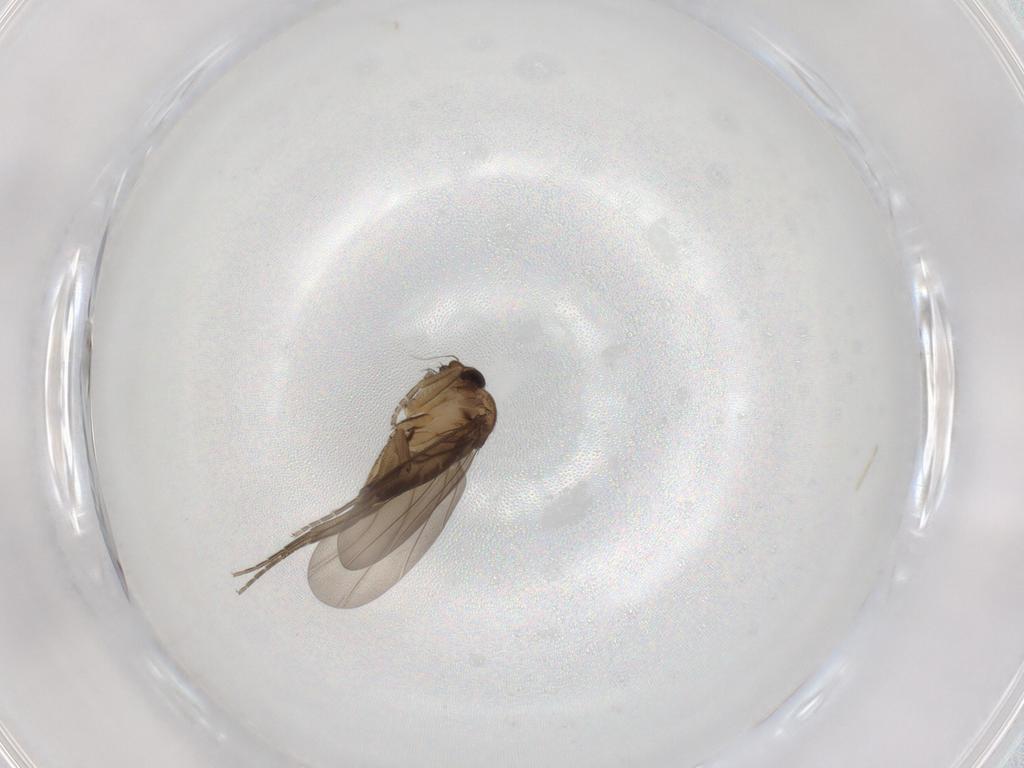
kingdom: Animalia
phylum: Arthropoda
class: Insecta
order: Diptera
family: Phoridae
